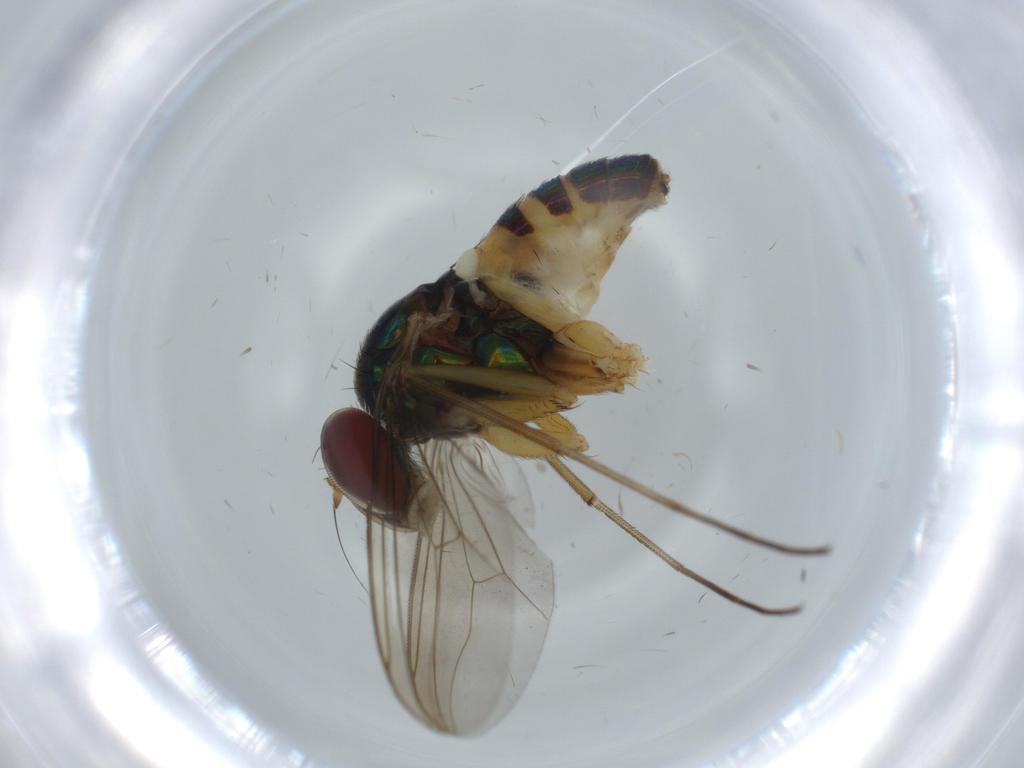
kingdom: Animalia
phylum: Arthropoda
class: Insecta
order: Diptera
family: Dolichopodidae
